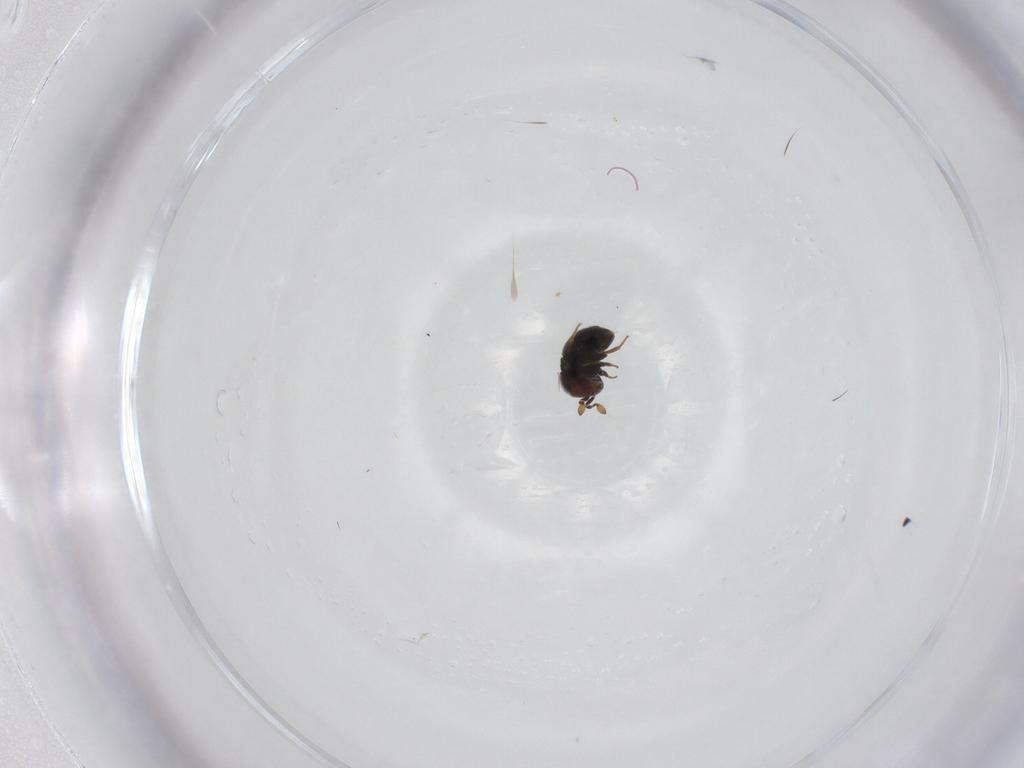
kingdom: Animalia
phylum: Arthropoda
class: Insecta
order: Hymenoptera
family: Scelionidae
